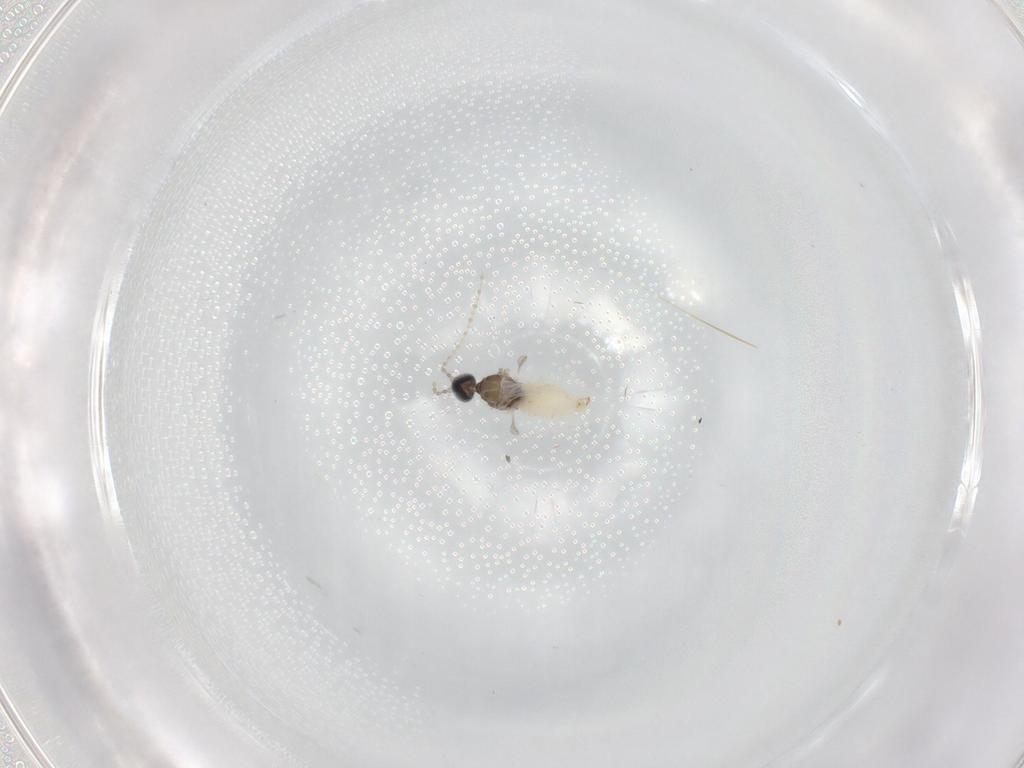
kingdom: Animalia
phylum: Arthropoda
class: Insecta
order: Diptera
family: Cecidomyiidae
